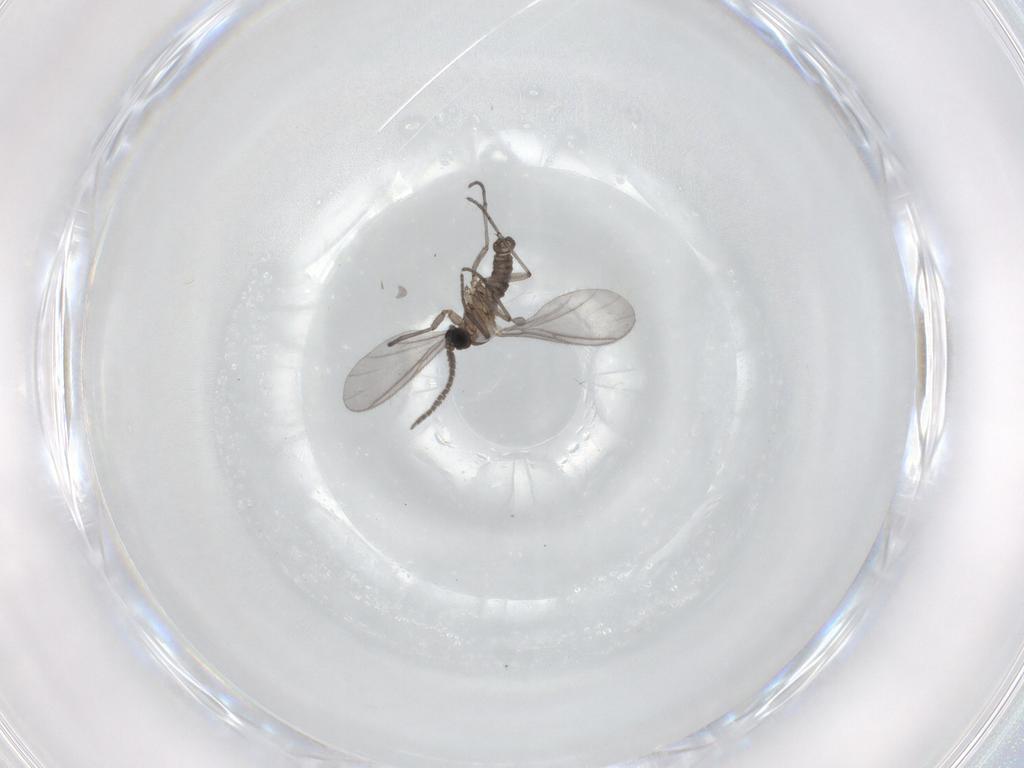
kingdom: Animalia
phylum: Arthropoda
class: Insecta
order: Diptera
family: Sciaridae
